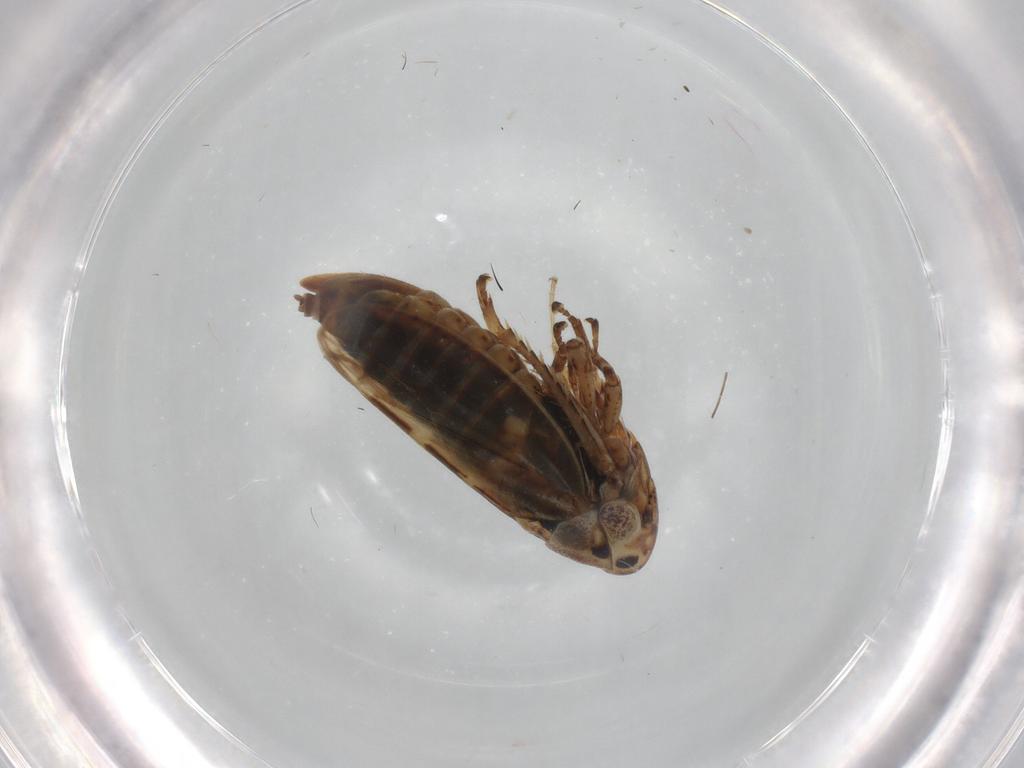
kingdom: Animalia
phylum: Arthropoda
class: Insecta
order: Hemiptera
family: Cicadellidae
